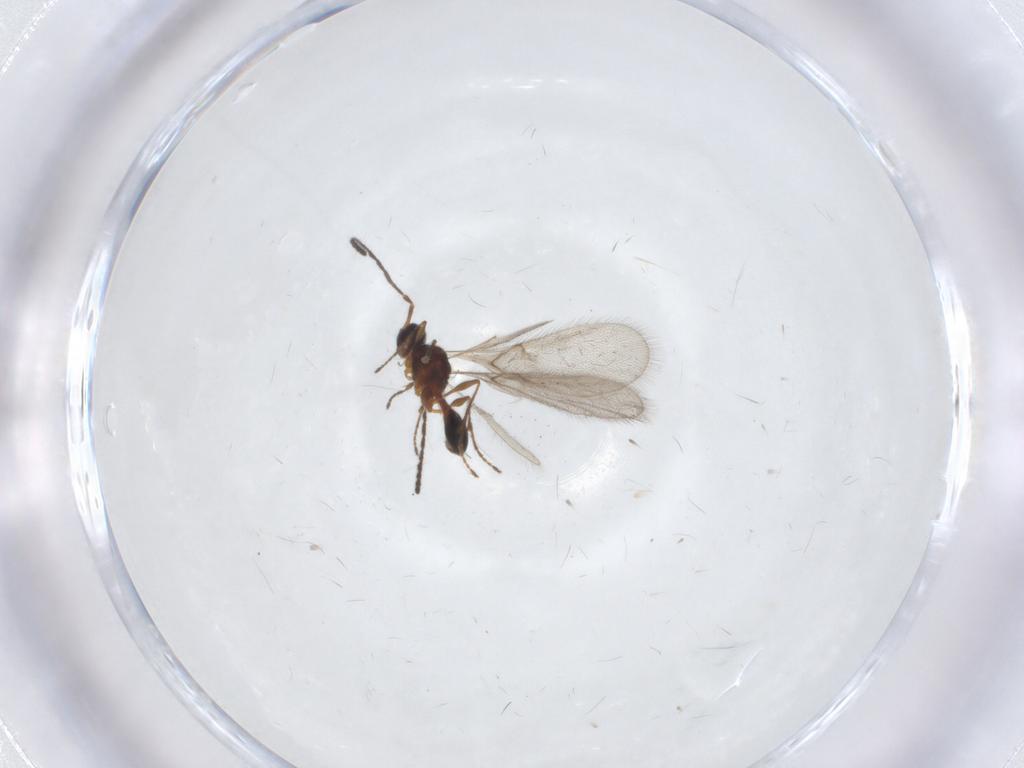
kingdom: Animalia
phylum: Arthropoda
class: Insecta
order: Hymenoptera
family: Diapriidae
